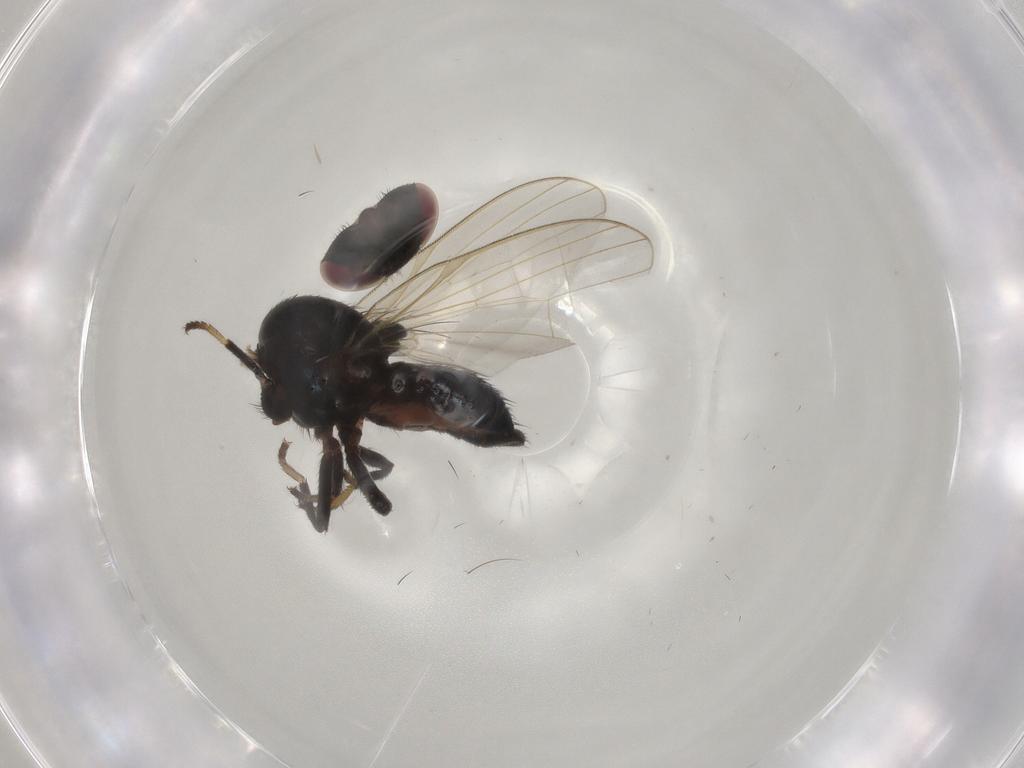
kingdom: Animalia
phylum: Arthropoda
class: Insecta
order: Diptera
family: Lonchaeidae
